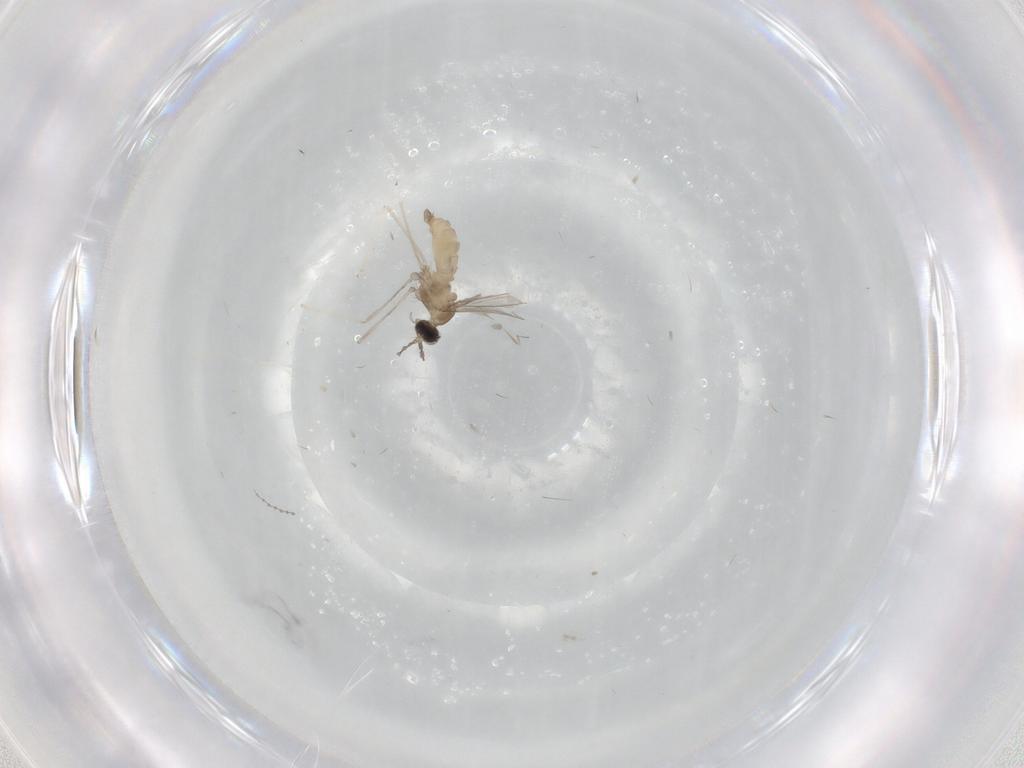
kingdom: Animalia
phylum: Arthropoda
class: Insecta
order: Diptera
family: Cecidomyiidae
